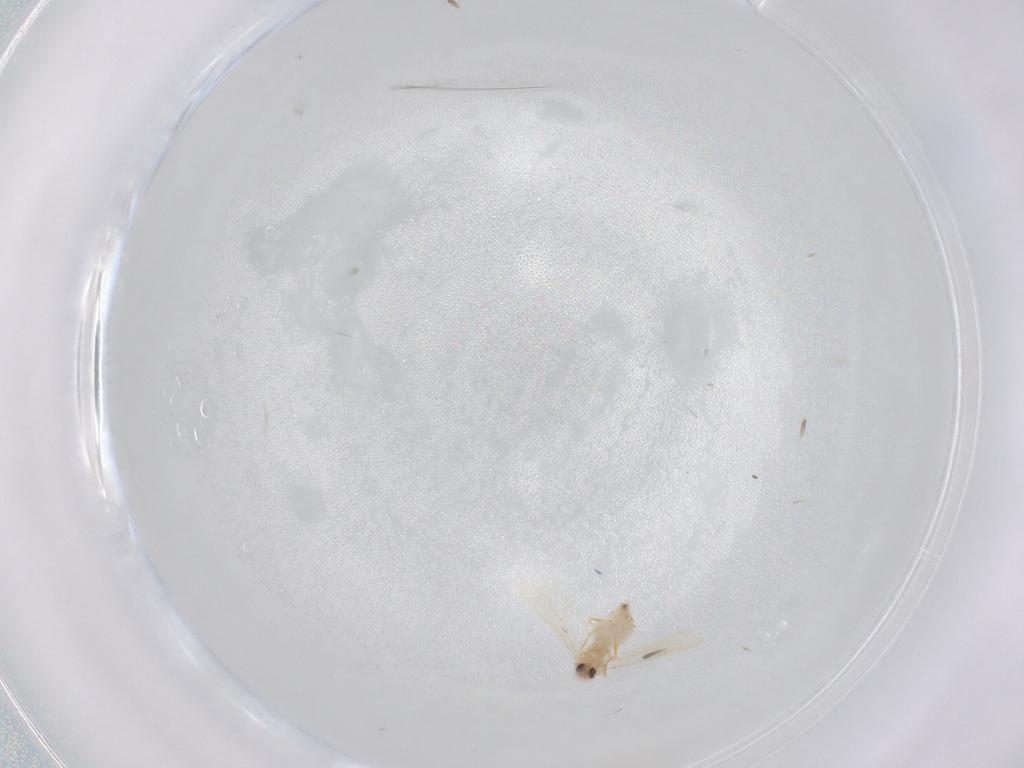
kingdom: Animalia
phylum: Arthropoda
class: Insecta
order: Hemiptera
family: Aleyrodidae
